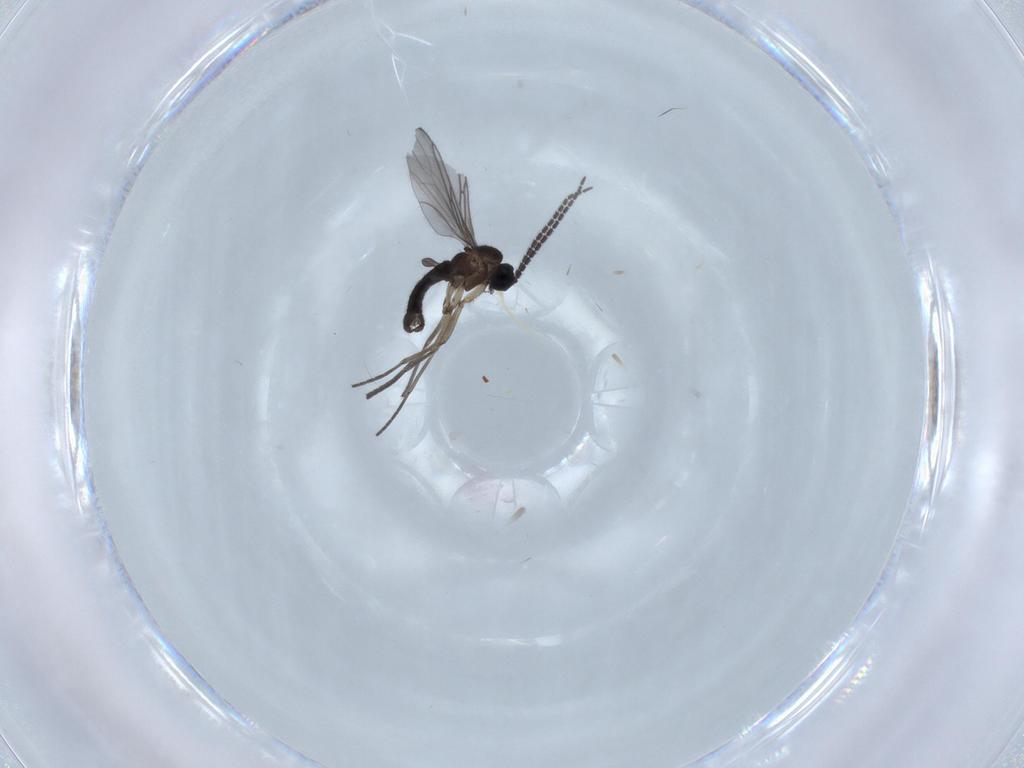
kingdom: Animalia
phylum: Arthropoda
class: Insecta
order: Diptera
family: Sciaridae
